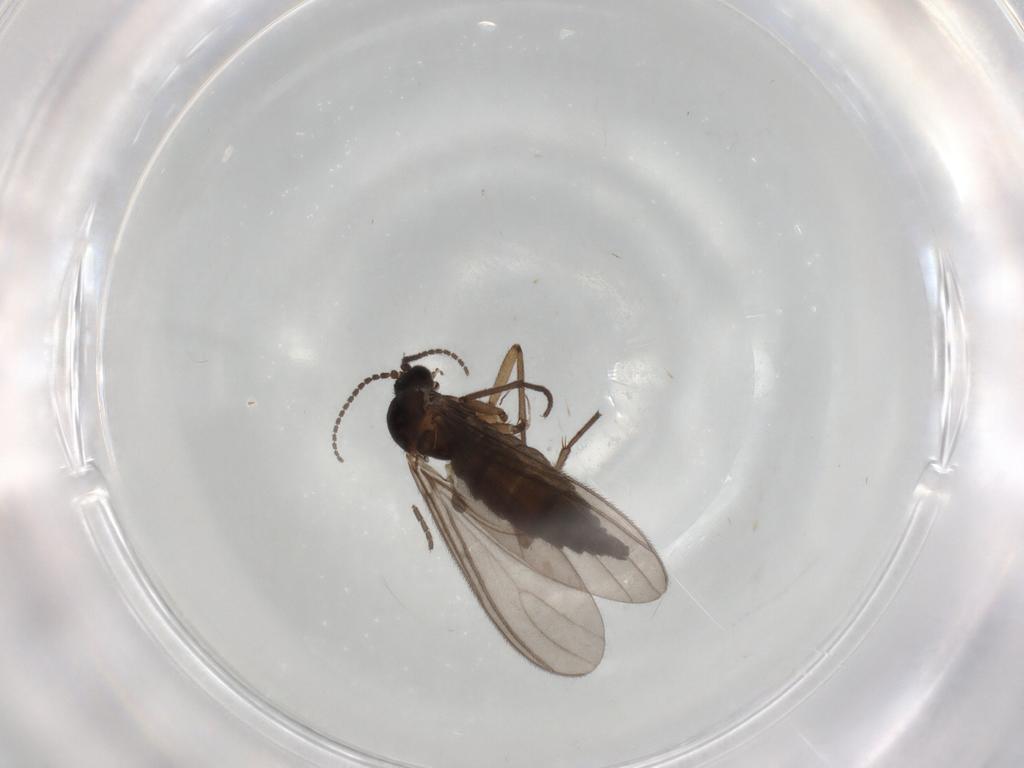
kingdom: Animalia
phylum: Arthropoda
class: Insecta
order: Diptera
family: Sciaridae
